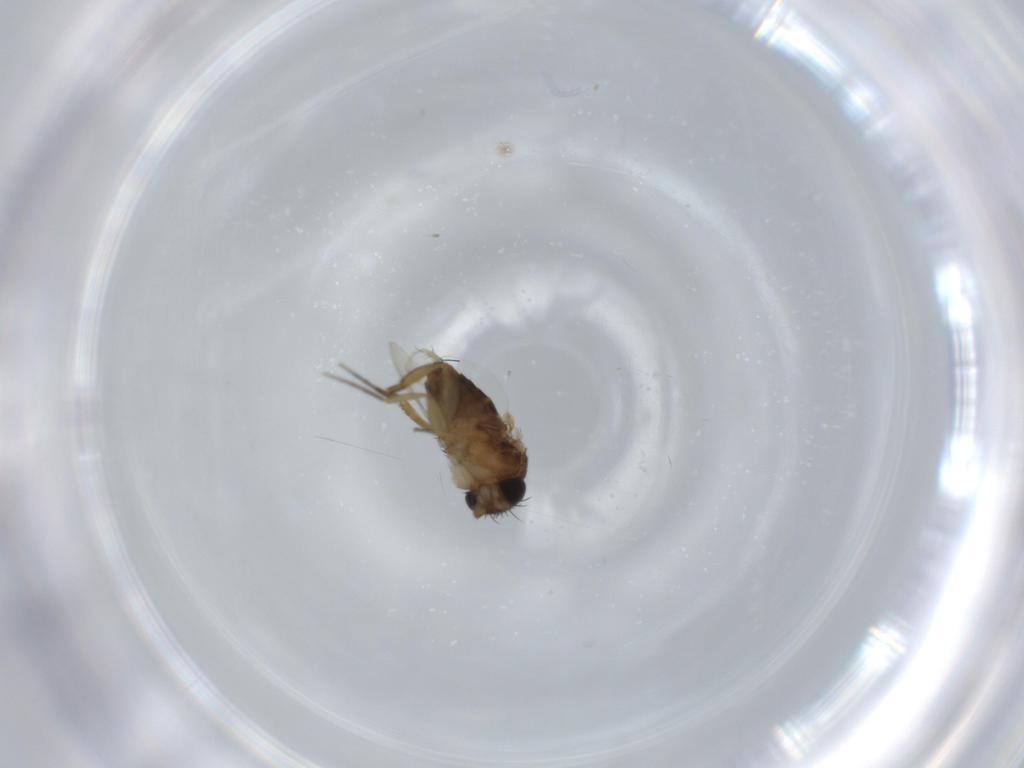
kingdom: Animalia
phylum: Arthropoda
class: Insecta
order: Diptera
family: Phoridae
